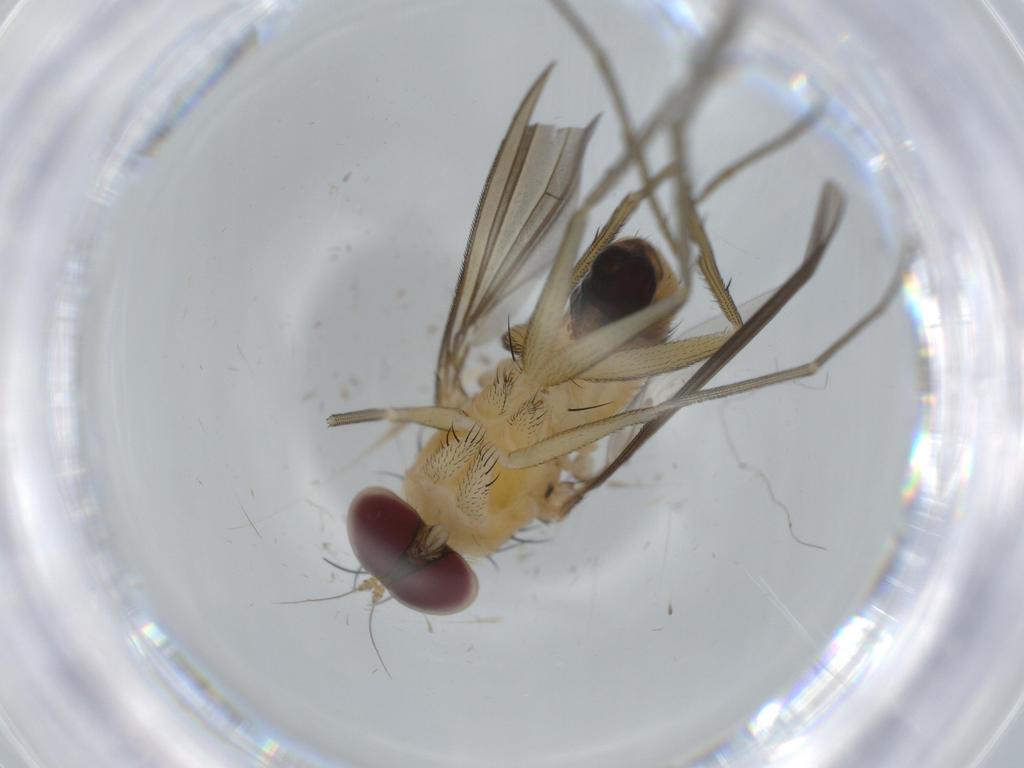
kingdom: Animalia
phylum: Arthropoda
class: Insecta
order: Diptera
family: Dolichopodidae
